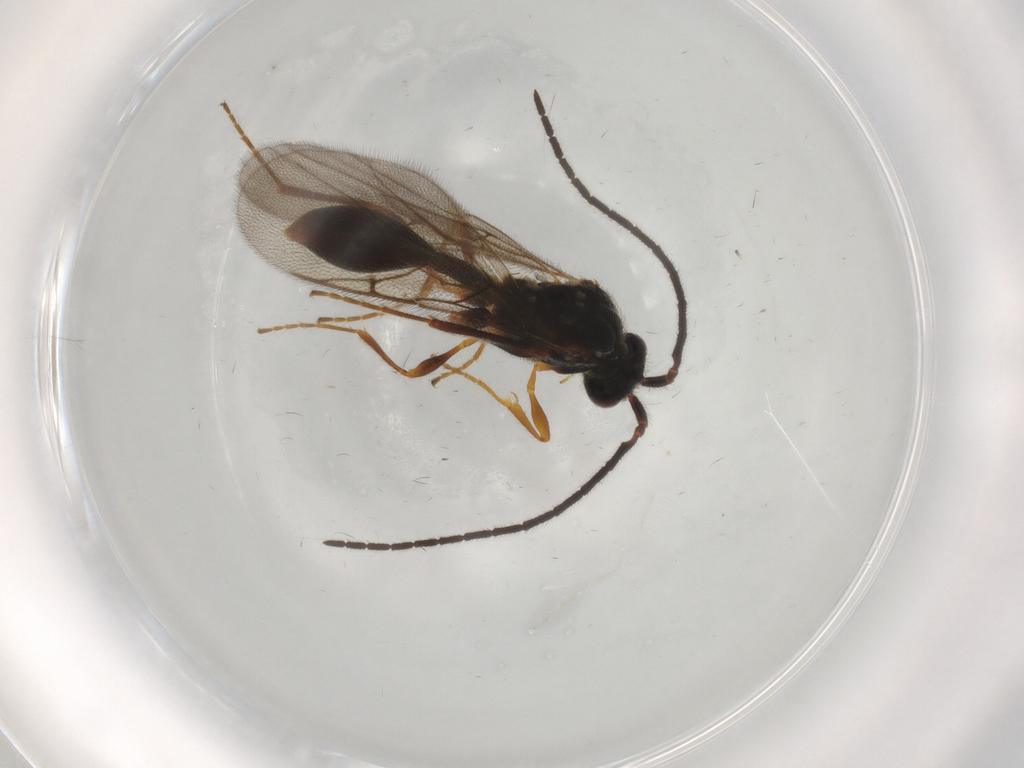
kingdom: Animalia
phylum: Arthropoda
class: Insecta
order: Hymenoptera
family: Diapriidae
